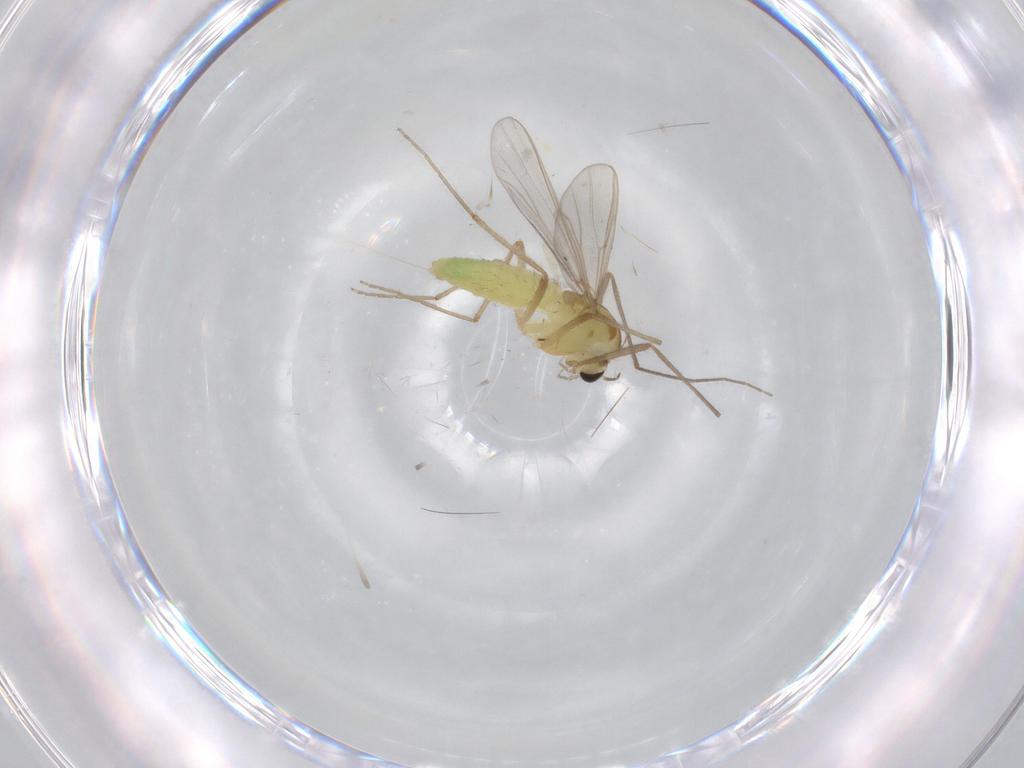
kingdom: Animalia
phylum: Arthropoda
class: Insecta
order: Diptera
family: Chironomidae
